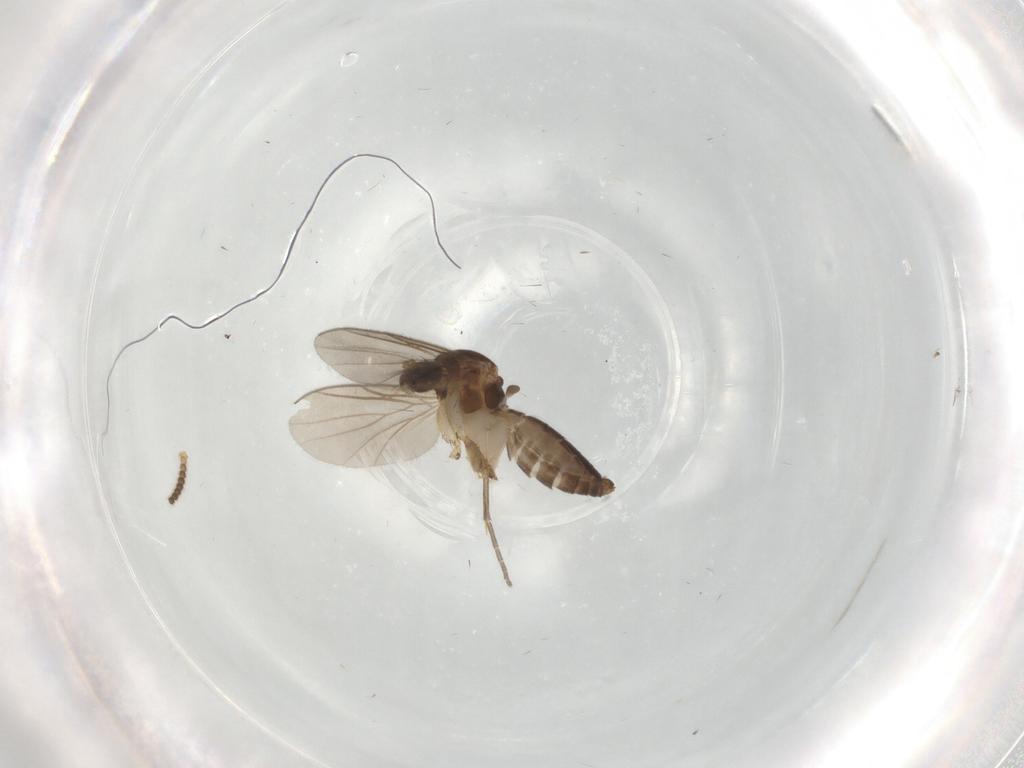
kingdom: Animalia
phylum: Arthropoda
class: Insecta
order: Diptera
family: Mycetophilidae
